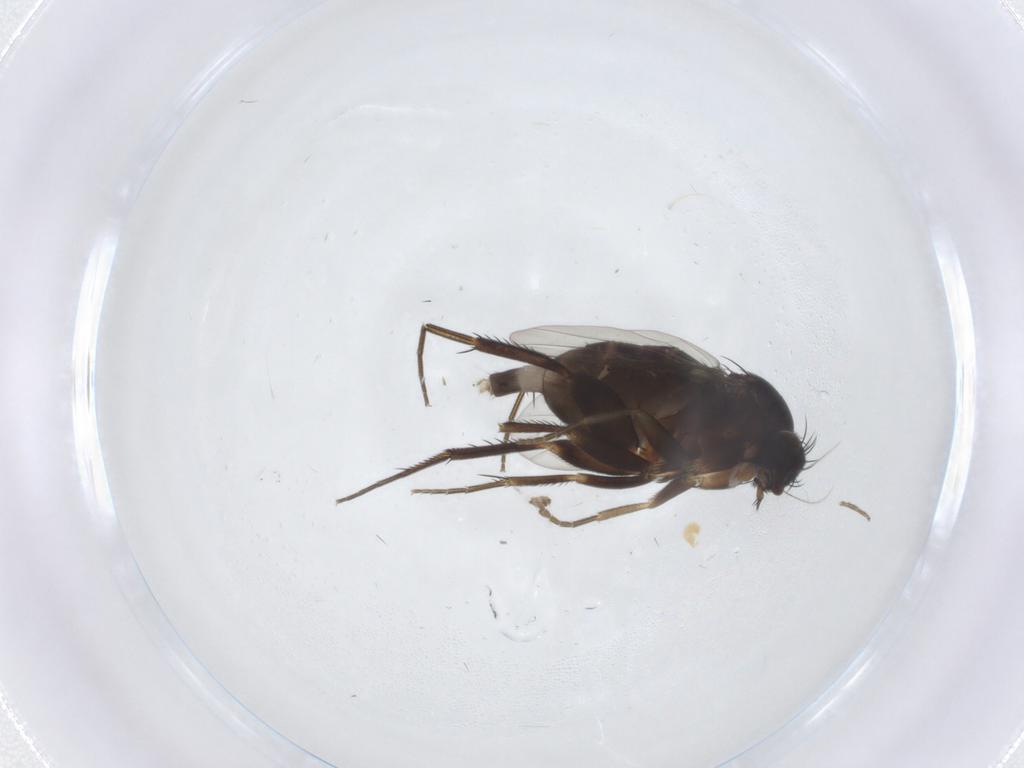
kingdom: Animalia
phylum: Arthropoda
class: Insecta
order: Diptera
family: Phoridae
